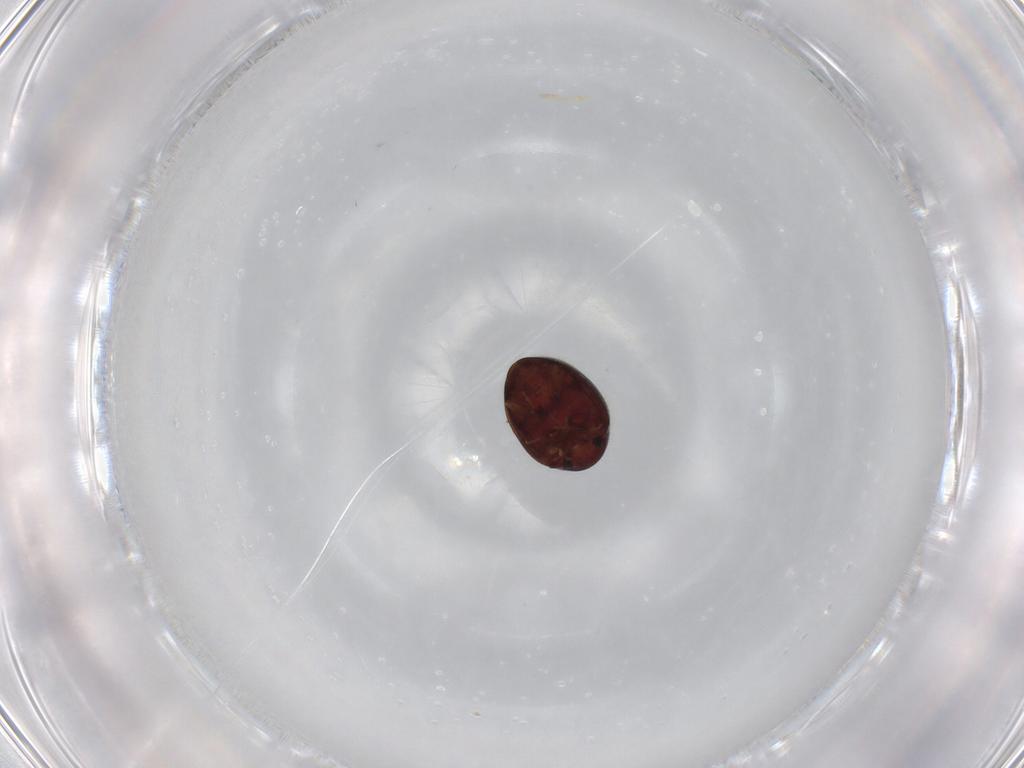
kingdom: Animalia
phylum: Arthropoda
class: Insecta
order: Coleoptera
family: Coccinellidae
